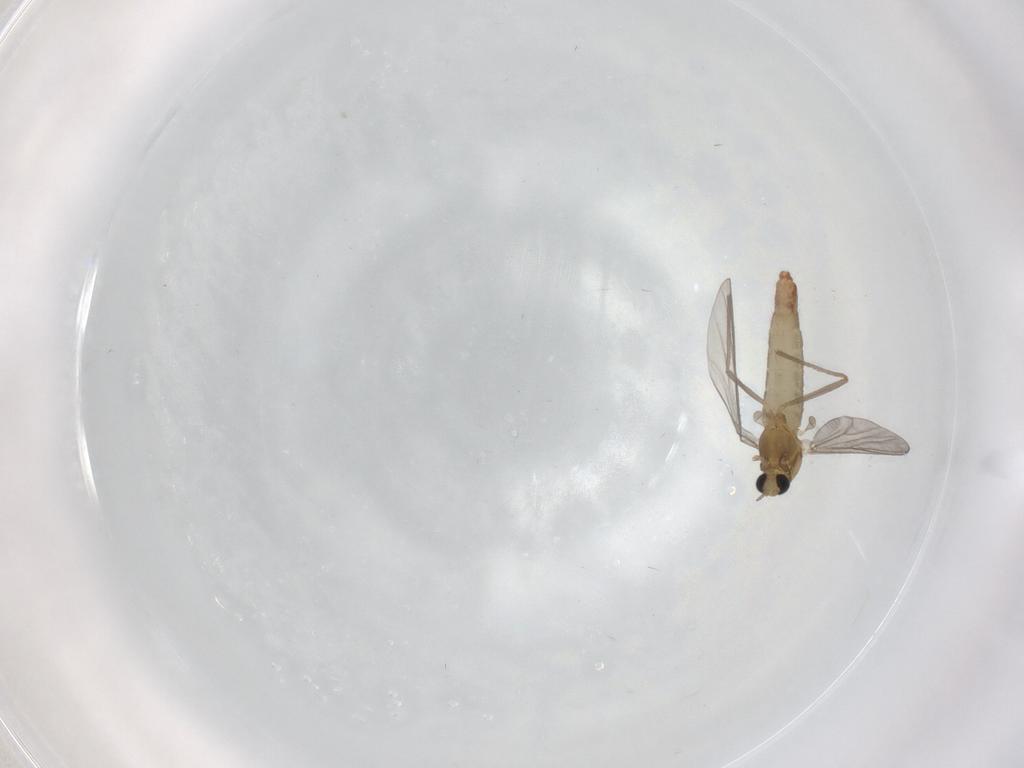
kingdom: Animalia
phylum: Arthropoda
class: Insecta
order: Diptera
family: Chironomidae
